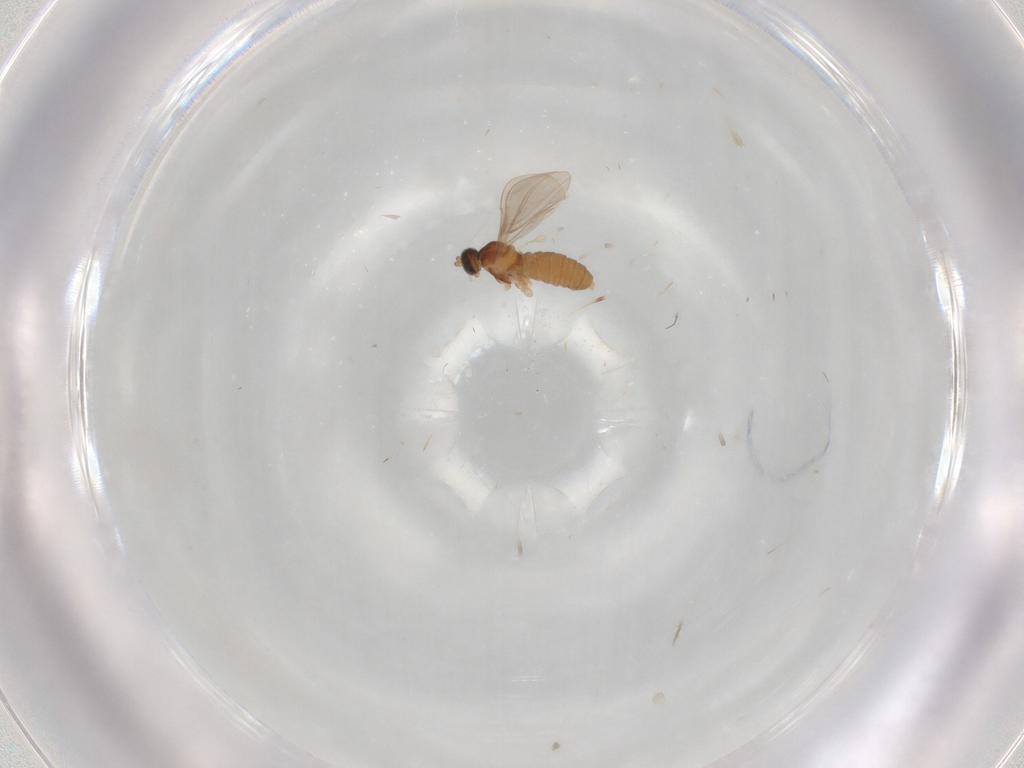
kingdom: Animalia
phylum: Arthropoda
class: Insecta
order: Diptera
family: Cecidomyiidae
